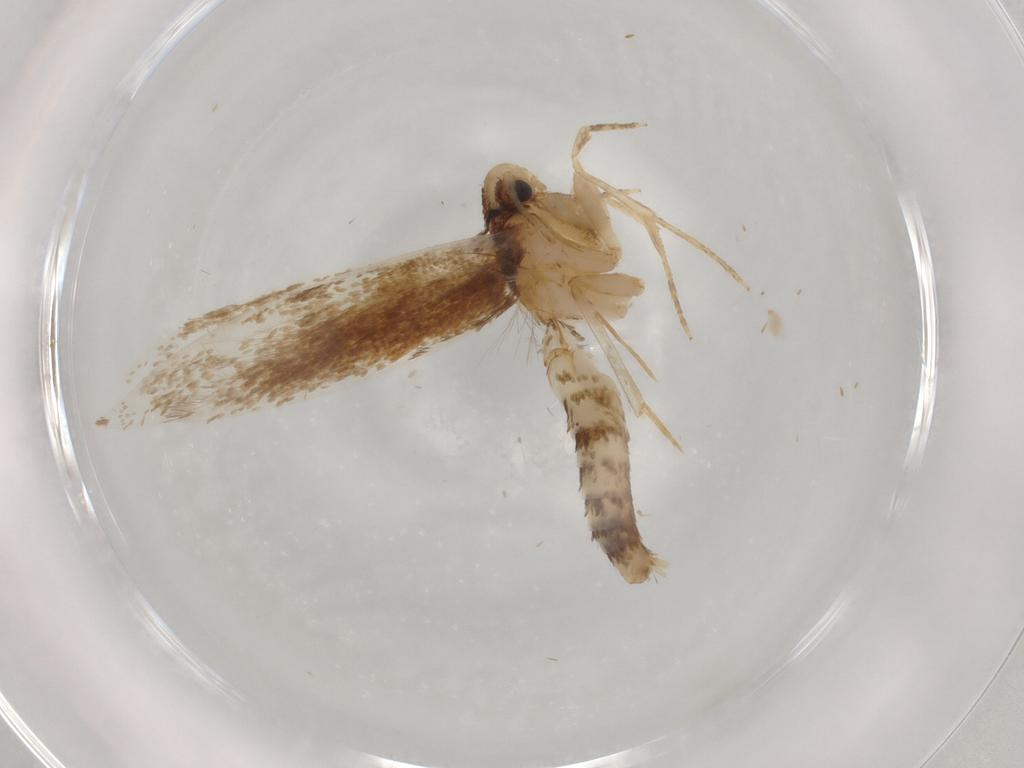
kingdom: Animalia
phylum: Arthropoda
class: Insecta
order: Lepidoptera
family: Tineidae
